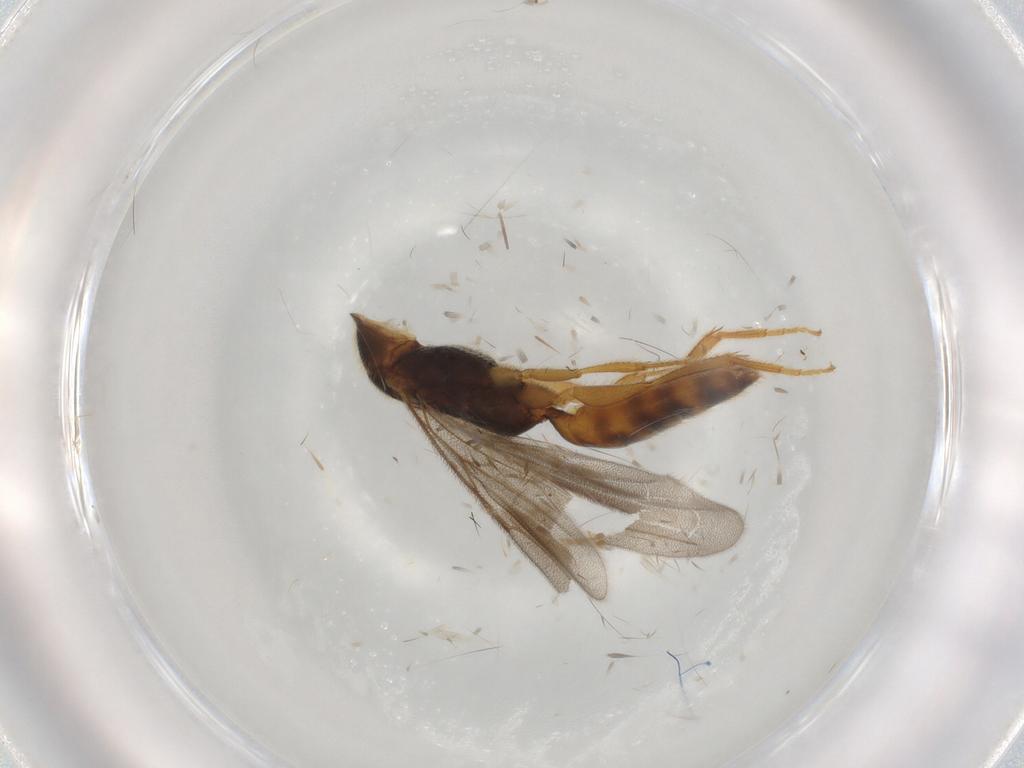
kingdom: Animalia
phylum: Arthropoda
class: Insecta
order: Hymenoptera
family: Bethylidae
